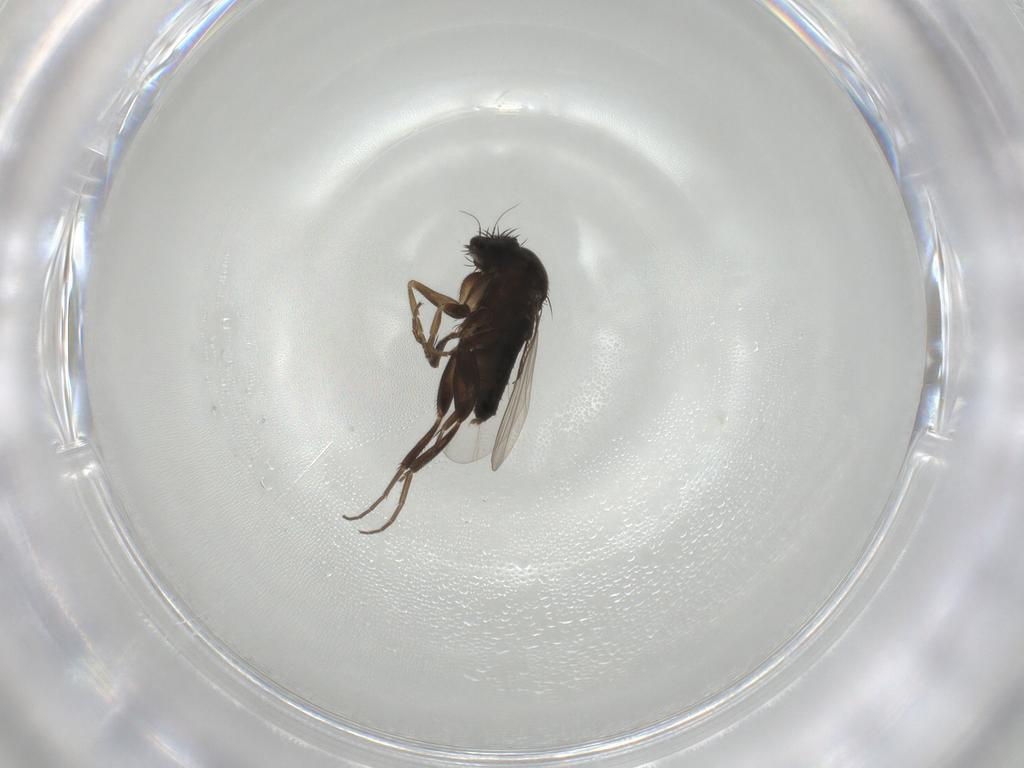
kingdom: Animalia
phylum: Arthropoda
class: Insecta
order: Diptera
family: Phoridae
